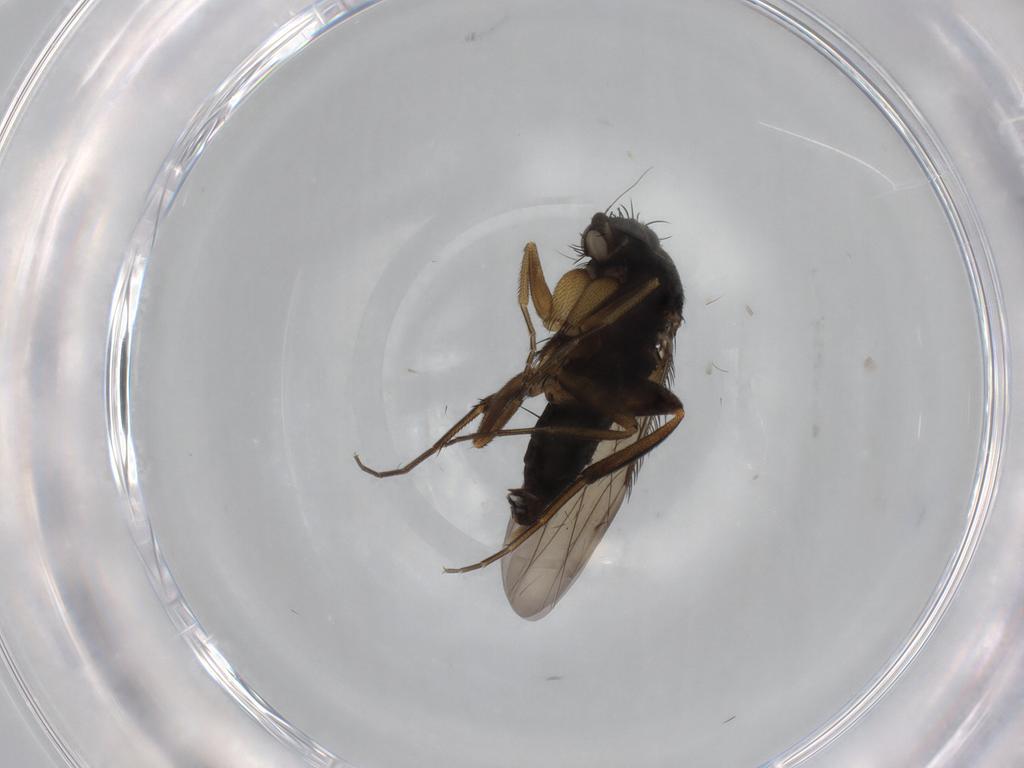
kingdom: Animalia
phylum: Arthropoda
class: Insecta
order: Diptera
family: Phoridae
